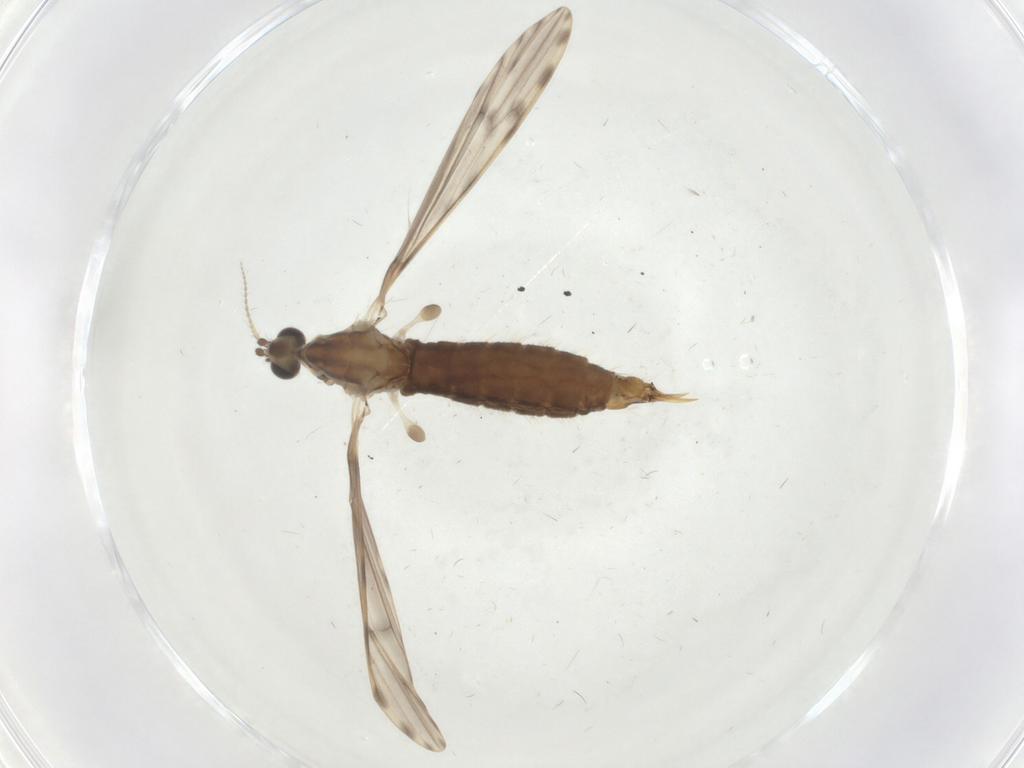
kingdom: Animalia
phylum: Arthropoda
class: Insecta
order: Diptera
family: Limoniidae
